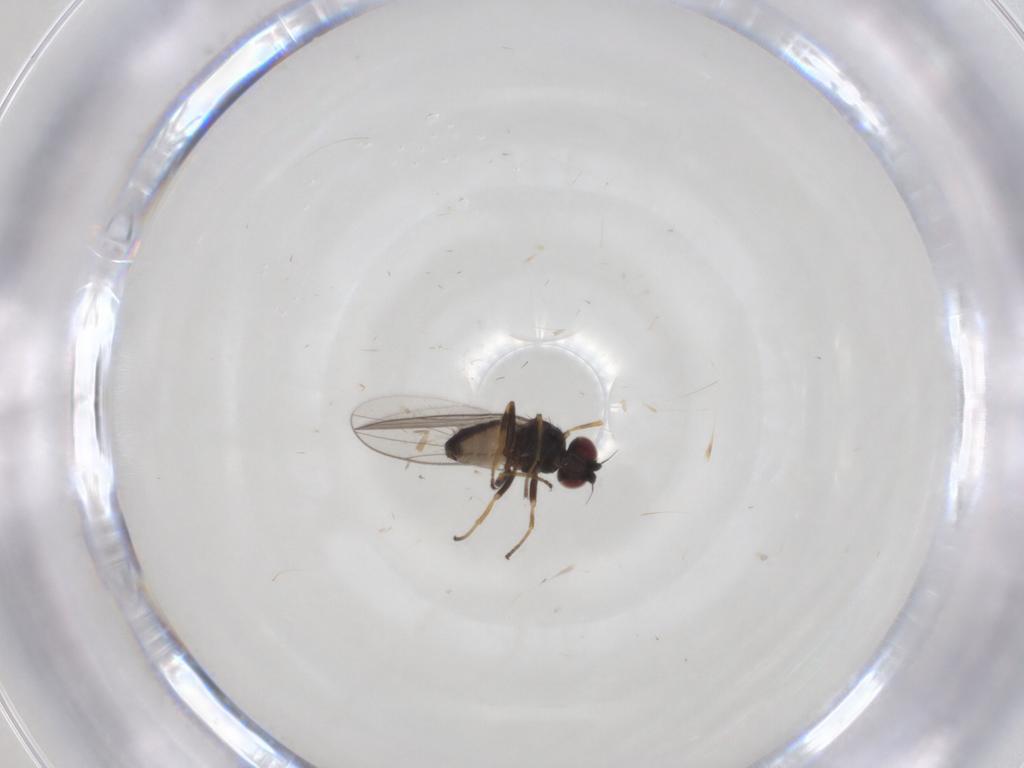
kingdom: Animalia
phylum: Arthropoda
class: Insecta
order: Diptera
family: Chloropidae
